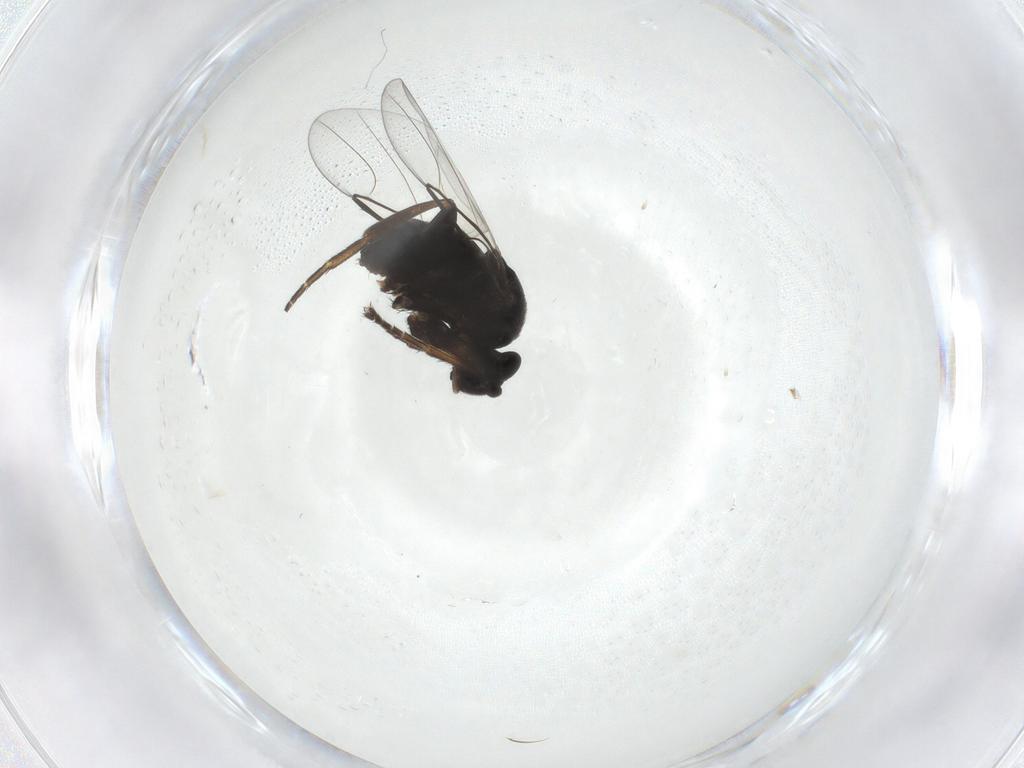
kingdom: Animalia
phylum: Arthropoda
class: Insecta
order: Diptera
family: Phoridae
